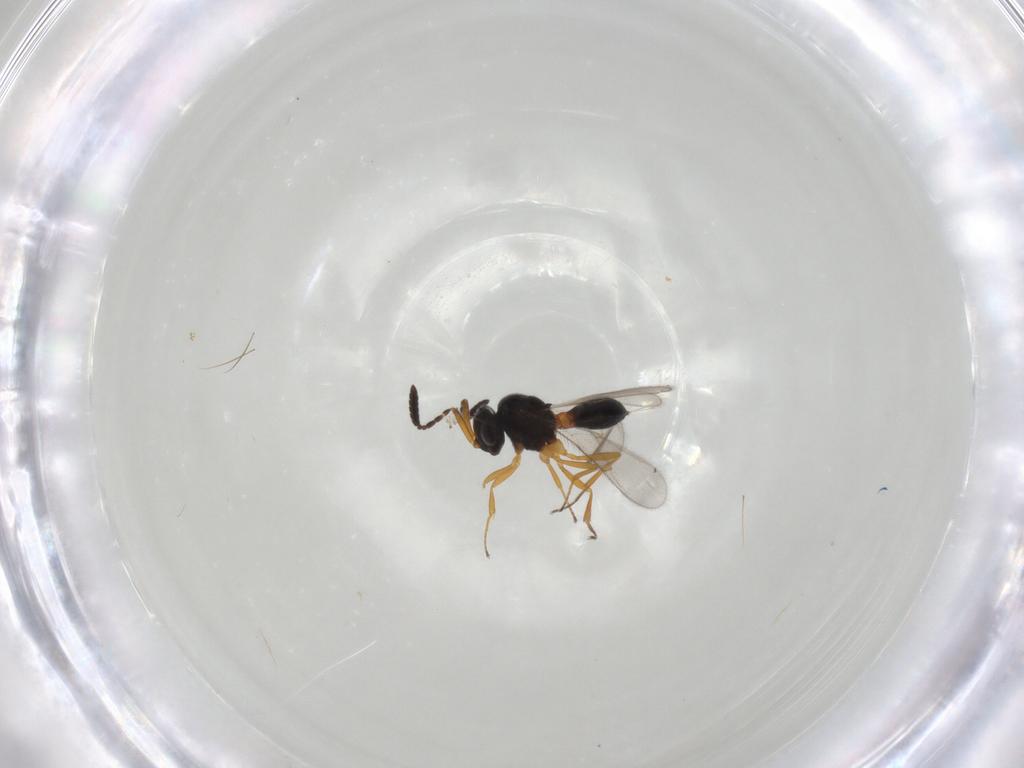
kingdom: Animalia
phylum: Arthropoda
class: Insecta
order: Hymenoptera
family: Scelionidae
